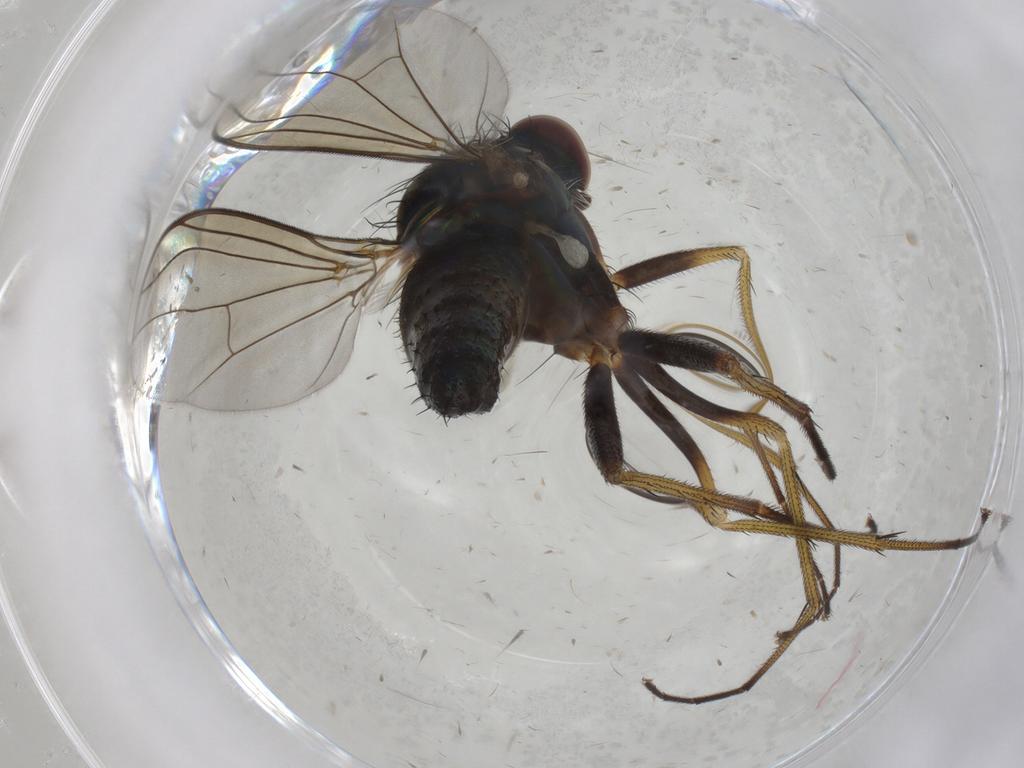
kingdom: Animalia
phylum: Arthropoda
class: Insecta
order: Diptera
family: Dolichopodidae
